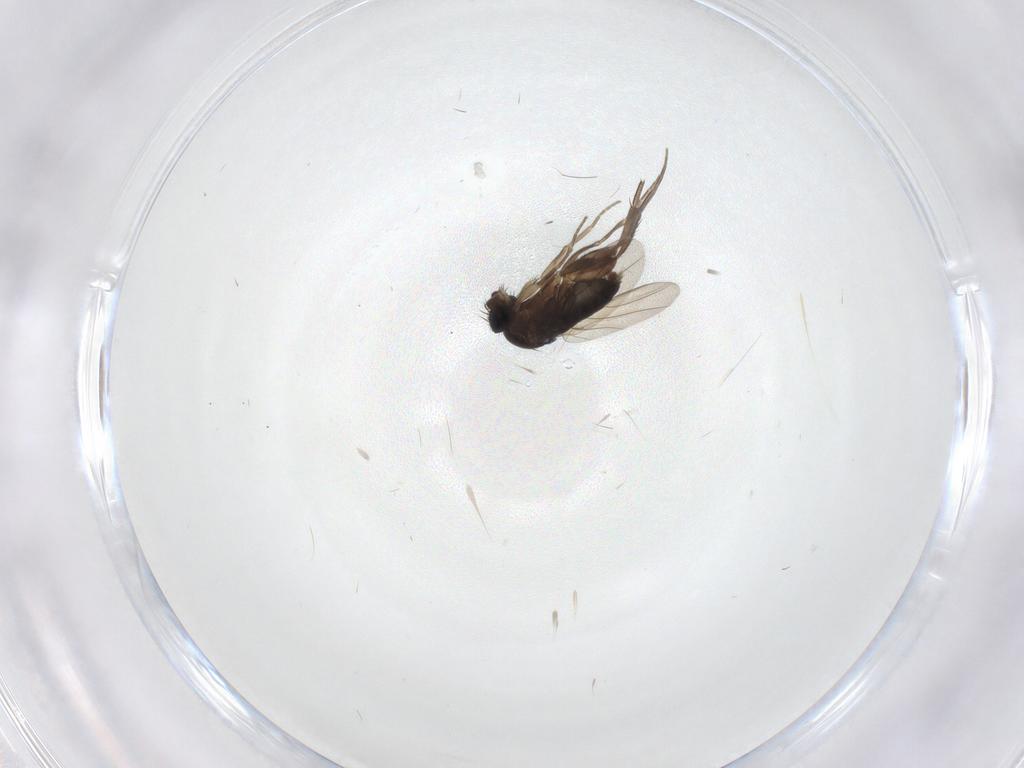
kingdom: Animalia
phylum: Arthropoda
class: Insecta
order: Diptera
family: Phoridae
